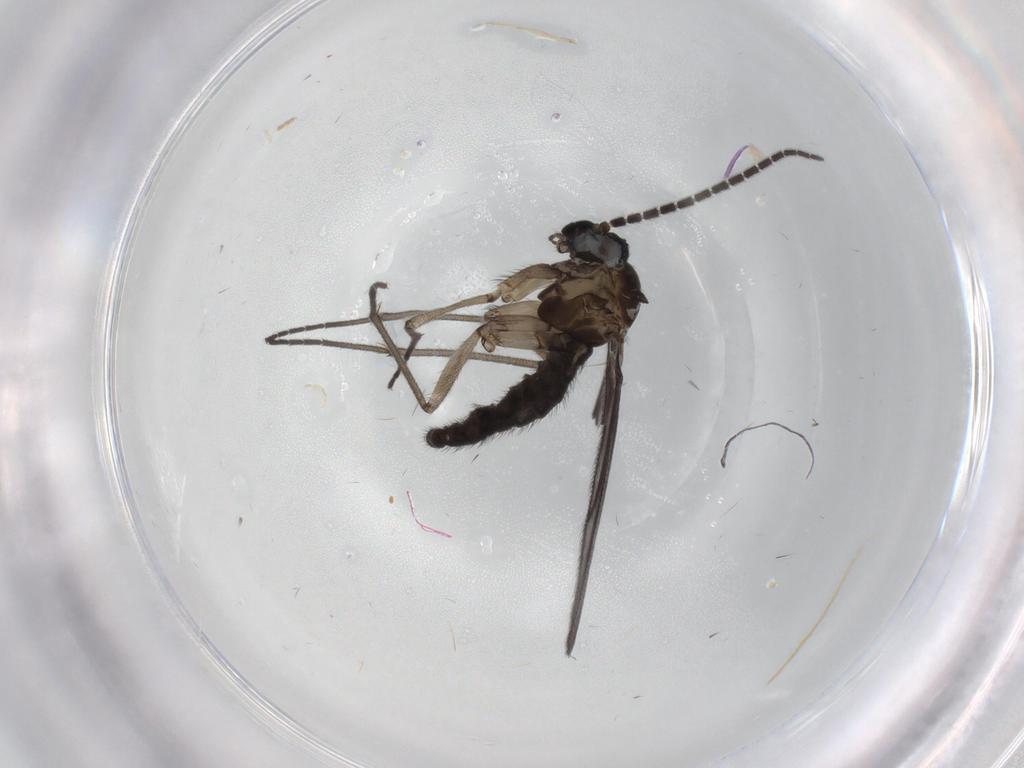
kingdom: Animalia
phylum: Arthropoda
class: Insecta
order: Diptera
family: Sciaridae
